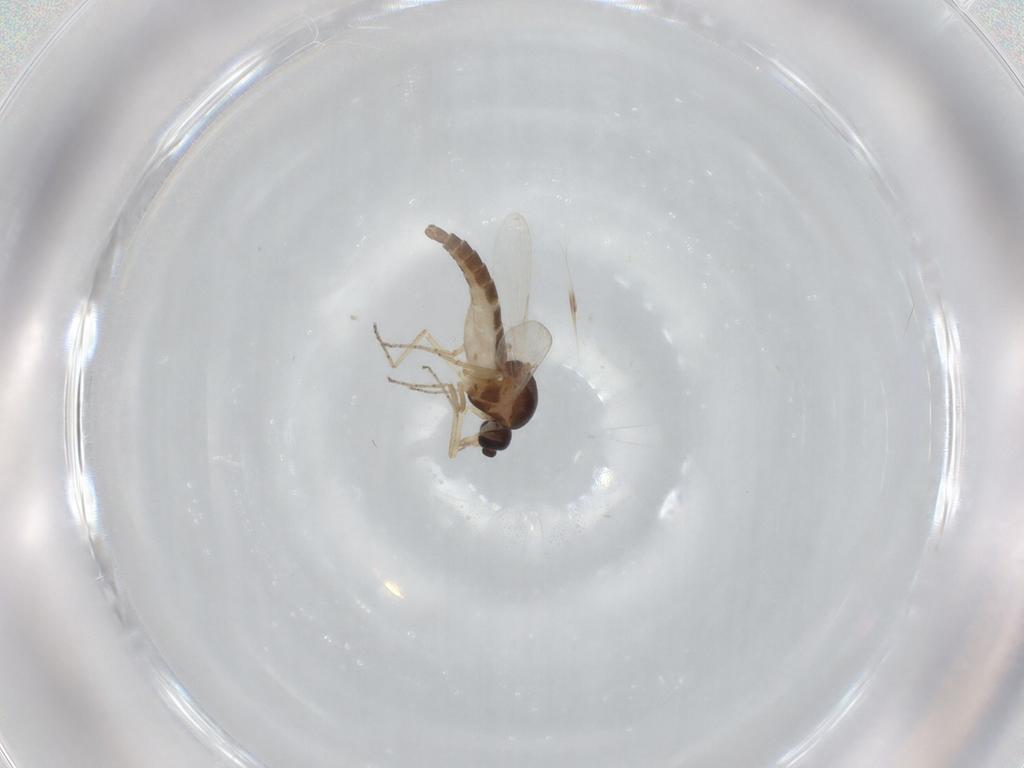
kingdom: Animalia
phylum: Arthropoda
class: Insecta
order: Diptera
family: Ceratopogonidae
